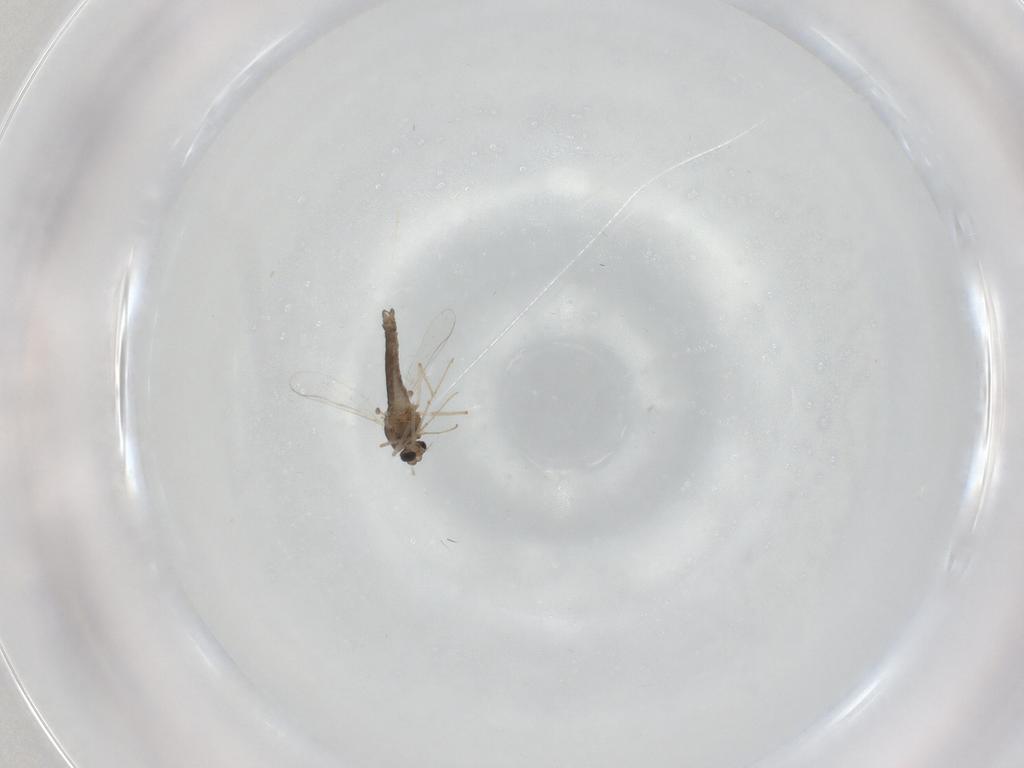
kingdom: Animalia
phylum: Arthropoda
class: Insecta
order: Diptera
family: Chironomidae
